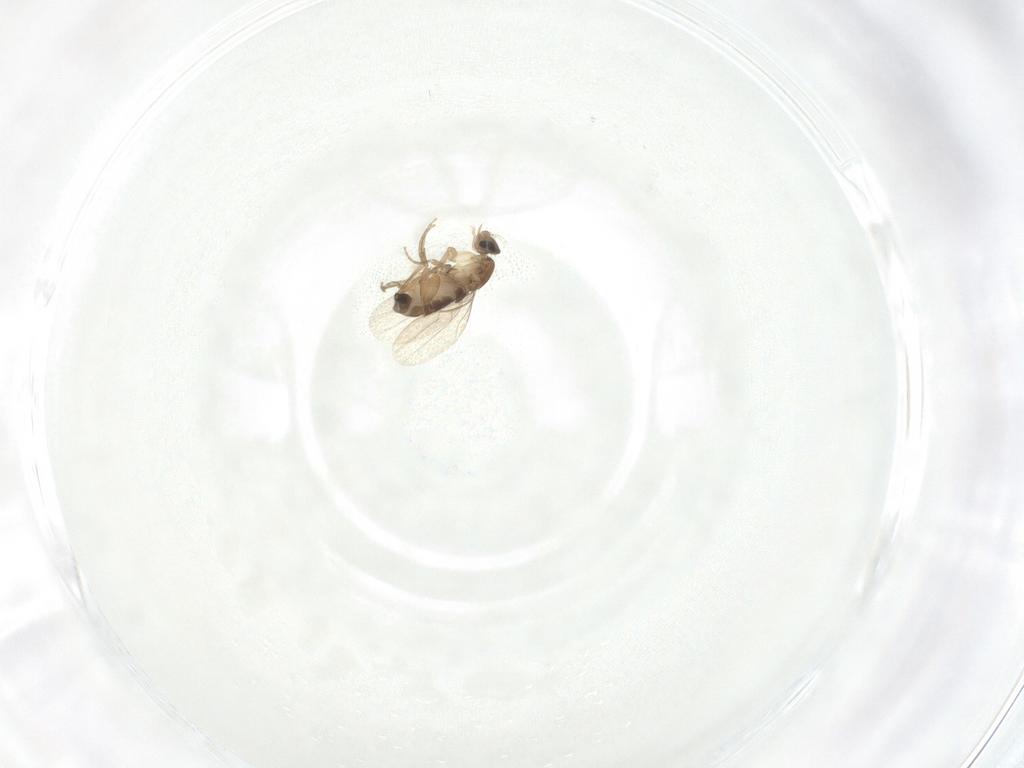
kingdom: Animalia
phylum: Arthropoda
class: Insecta
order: Diptera
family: Phoridae
